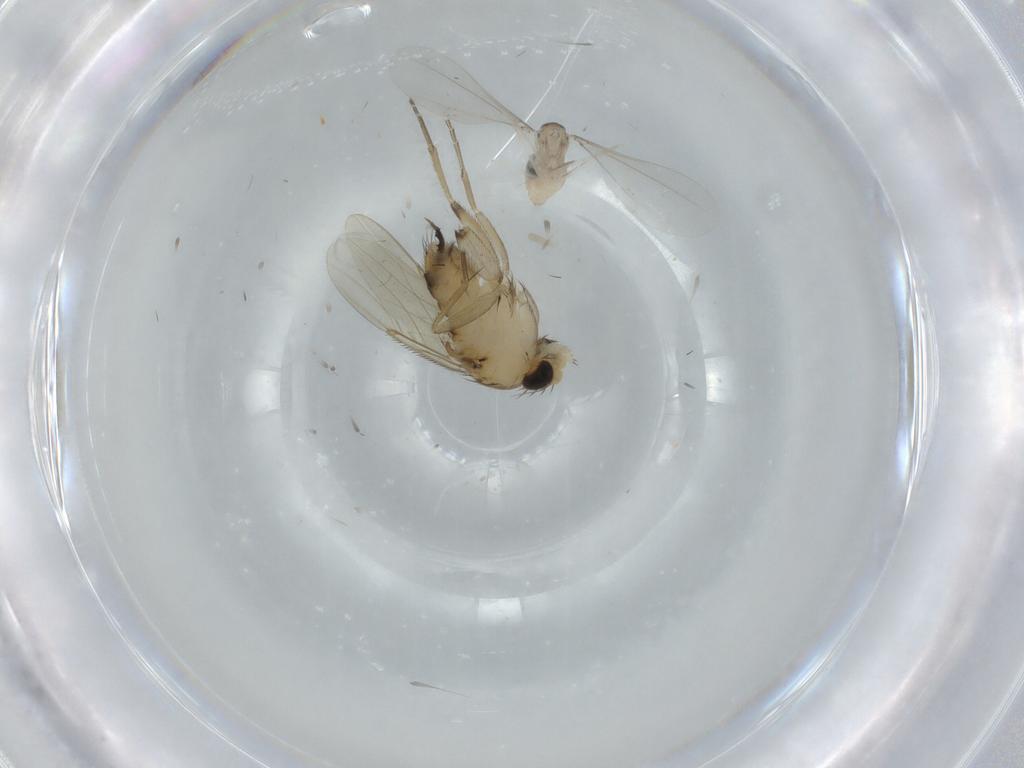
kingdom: Animalia
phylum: Arthropoda
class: Insecta
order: Diptera
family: Phoridae
